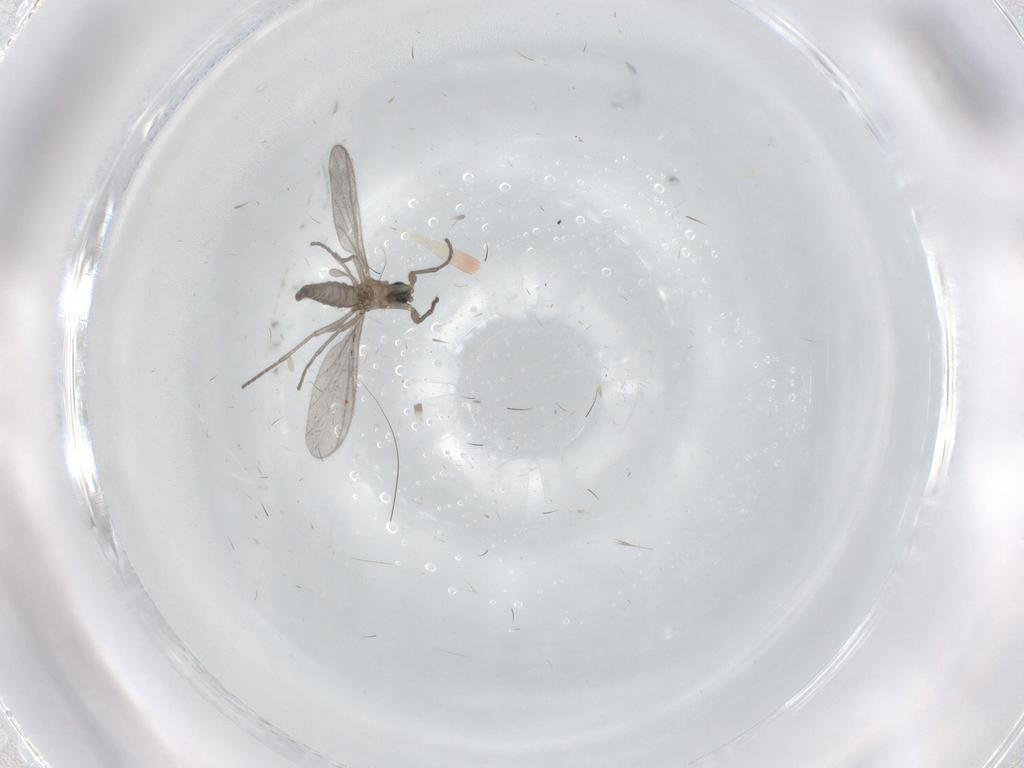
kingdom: Animalia
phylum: Arthropoda
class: Insecta
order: Diptera
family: Sciaridae
